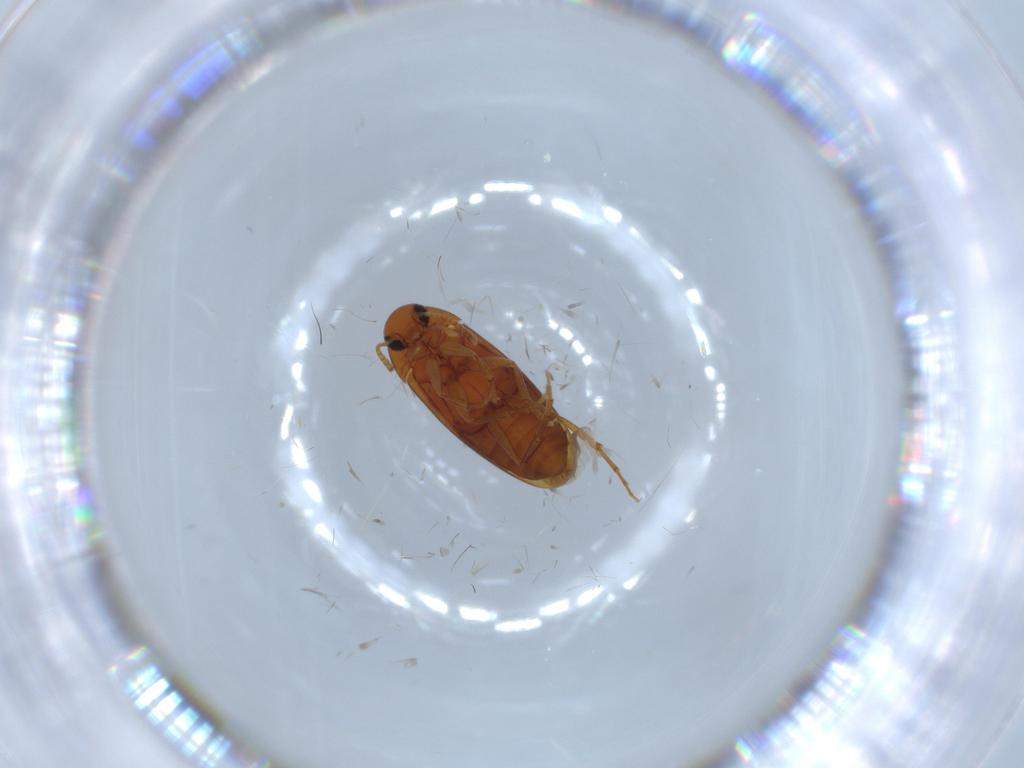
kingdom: Animalia
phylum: Arthropoda
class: Insecta
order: Coleoptera
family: Scraptiidae
